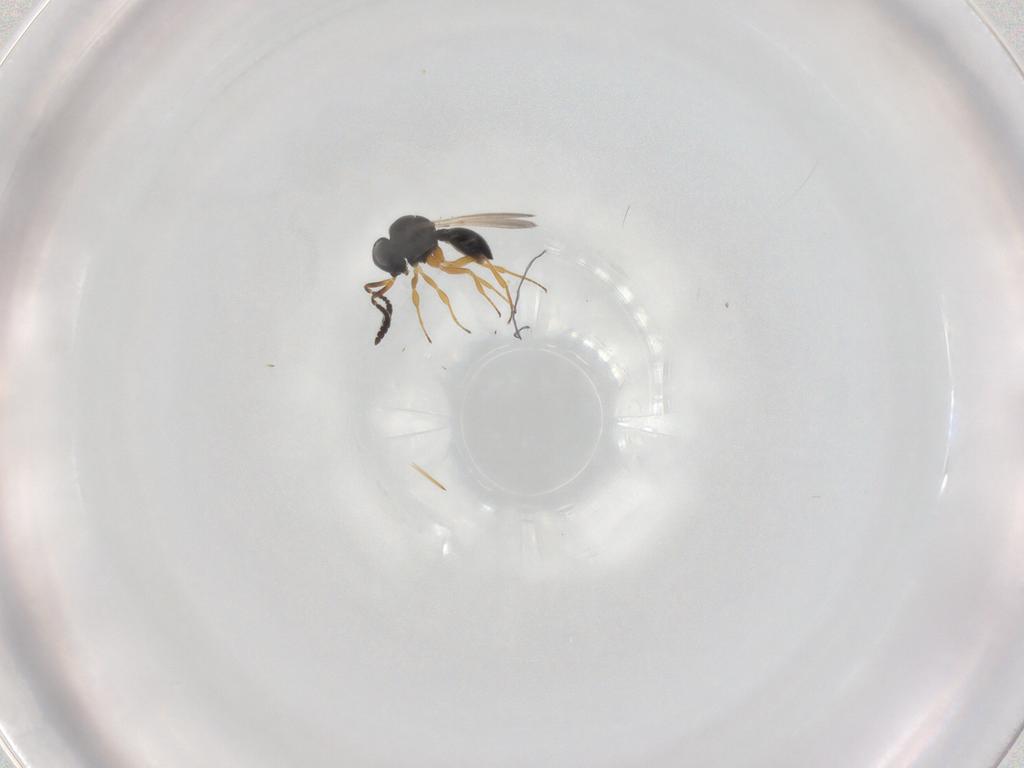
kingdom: Animalia
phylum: Arthropoda
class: Insecta
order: Hymenoptera
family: Scelionidae
